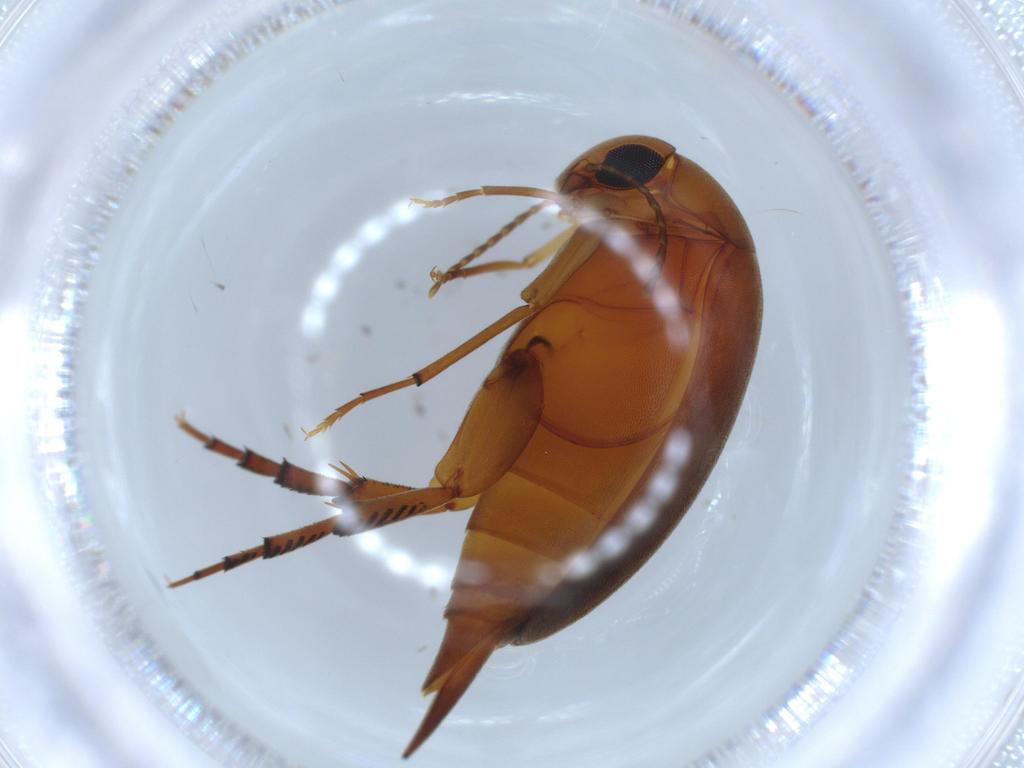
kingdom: Animalia
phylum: Arthropoda
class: Insecta
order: Coleoptera
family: Mordellidae
